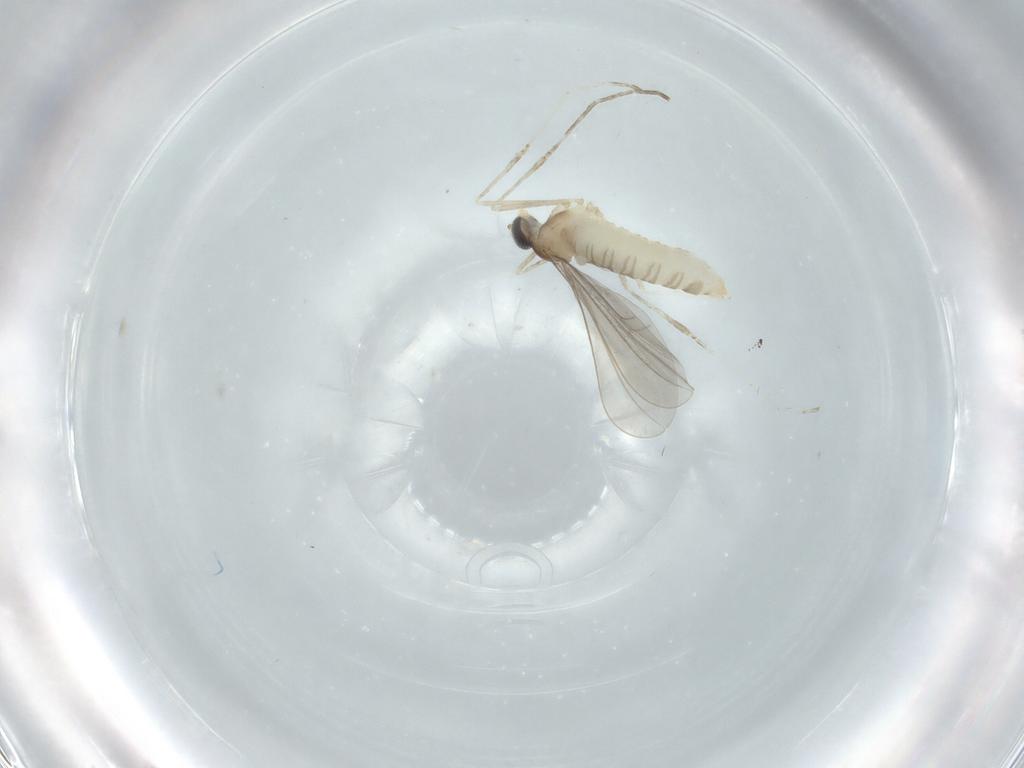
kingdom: Animalia
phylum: Arthropoda
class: Insecta
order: Diptera
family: Cecidomyiidae
